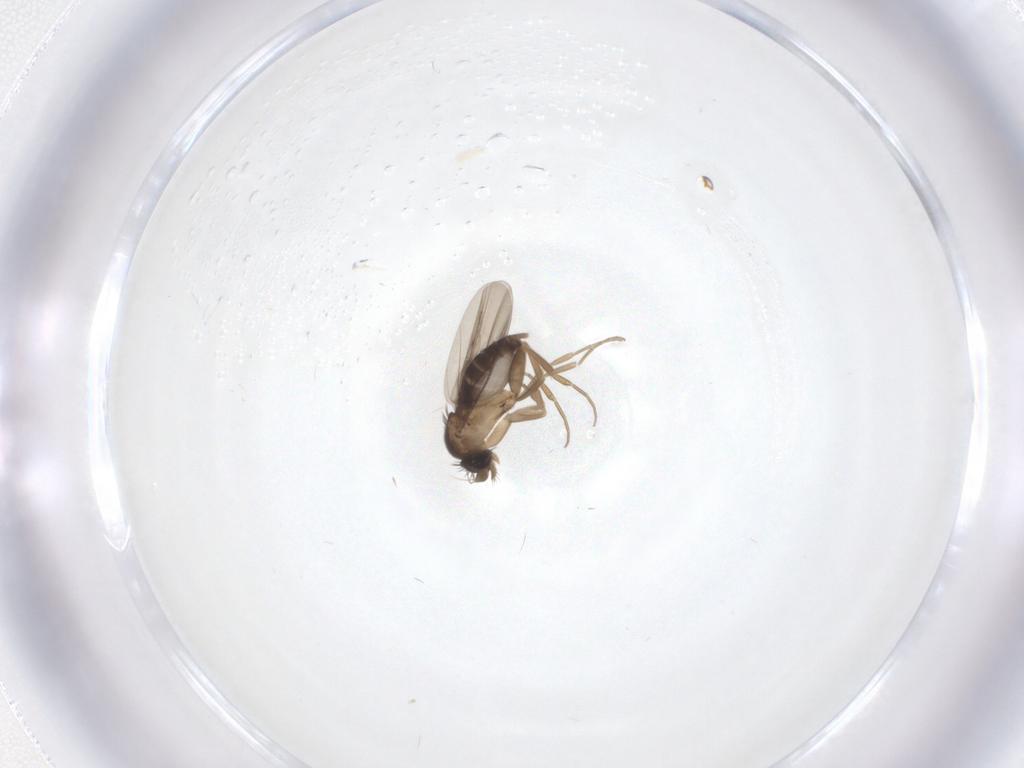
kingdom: Animalia
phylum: Arthropoda
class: Insecta
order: Diptera
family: Phoridae
